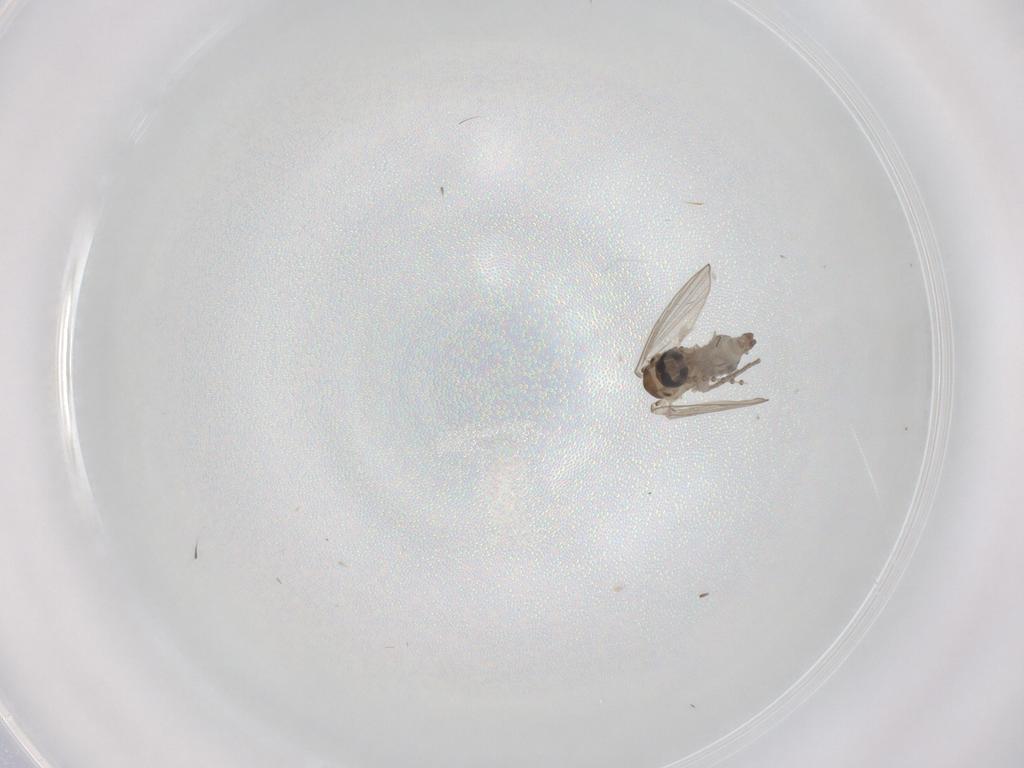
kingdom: Animalia
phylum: Arthropoda
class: Insecta
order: Diptera
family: Psychodidae
